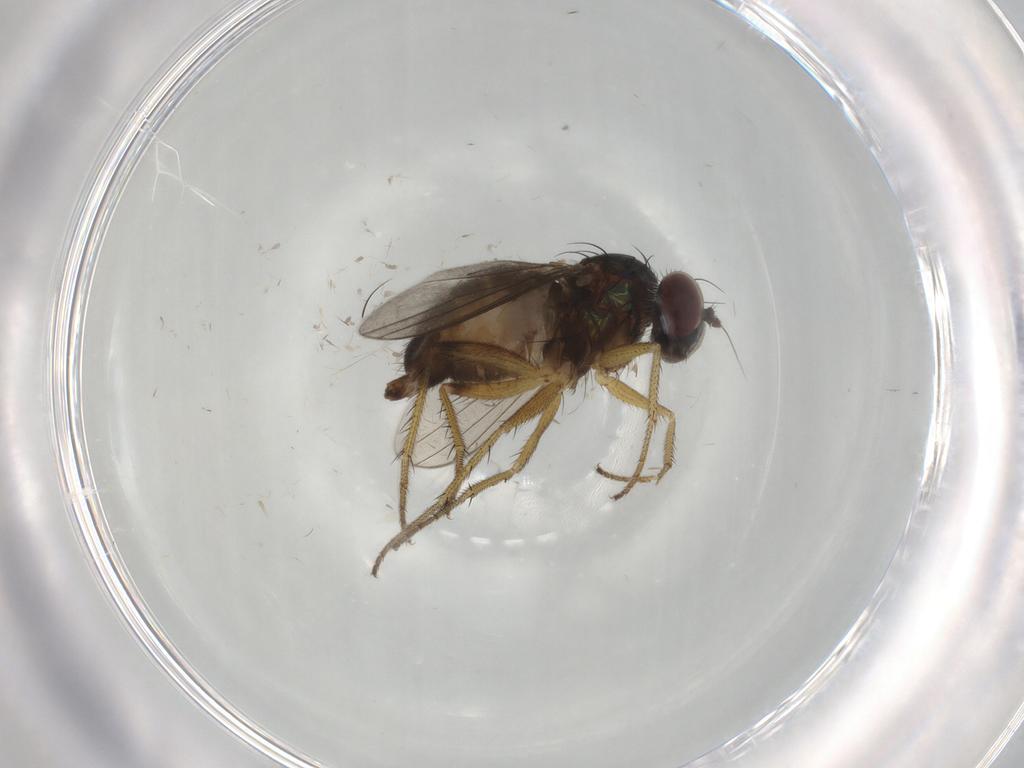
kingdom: Animalia
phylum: Arthropoda
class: Insecta
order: Diptera
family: Dolichopodidae
